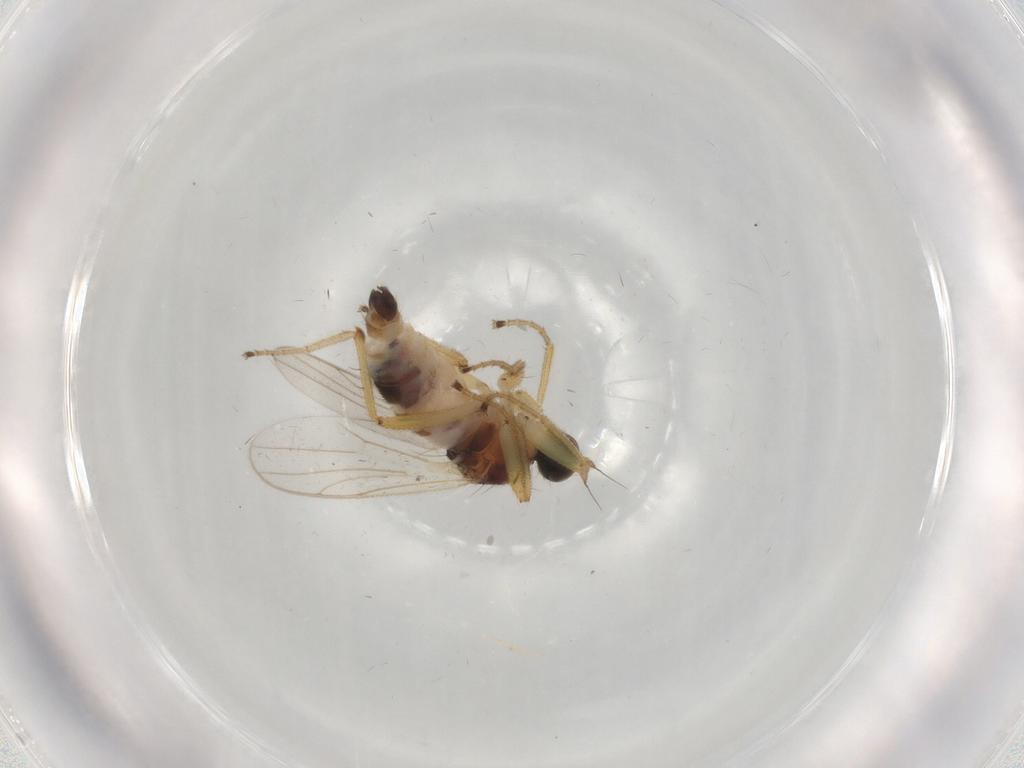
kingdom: Animalia
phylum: Arthropoda
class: Insecta
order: Diptera
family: Hybotidae
